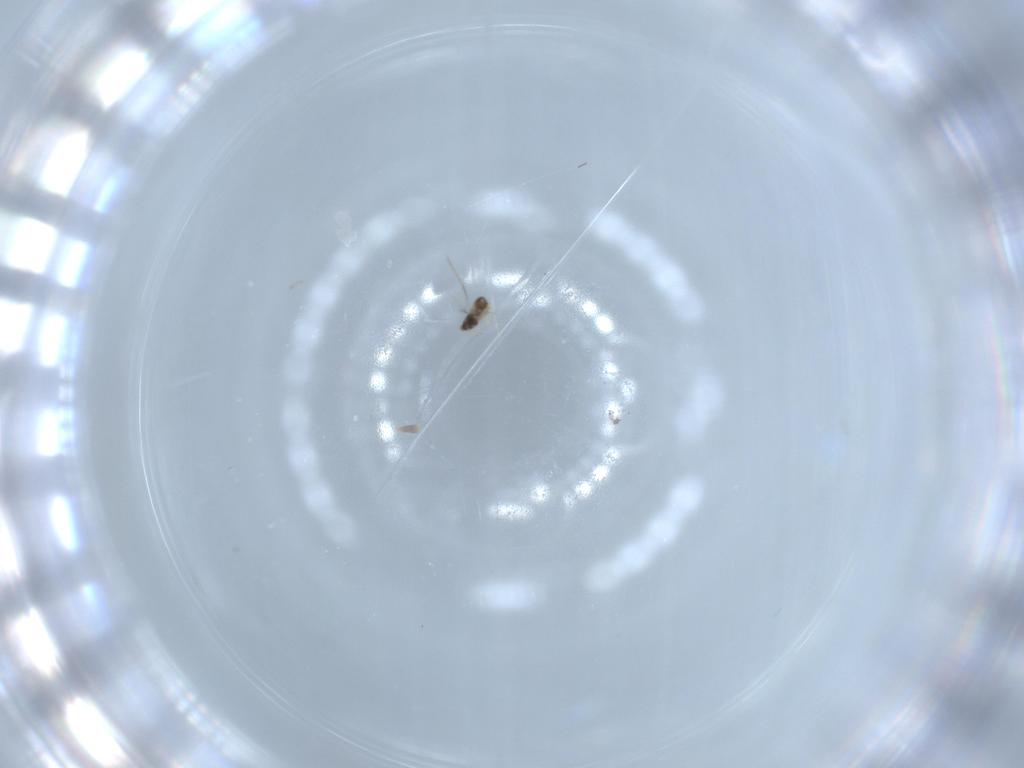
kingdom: Animalia
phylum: Arthropoda
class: Insecta
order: Hymenoptera
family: Aphelinidae
